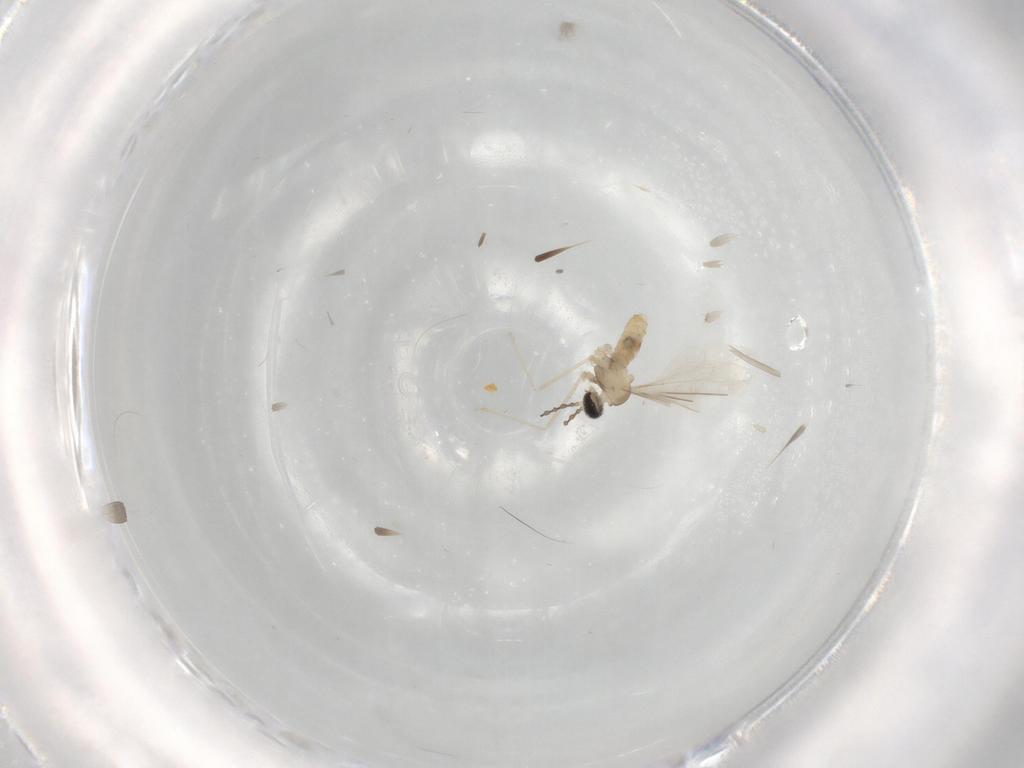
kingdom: Animalia
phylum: Arthropoda
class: Insecta
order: Diptera
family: Cecidomyiidae
